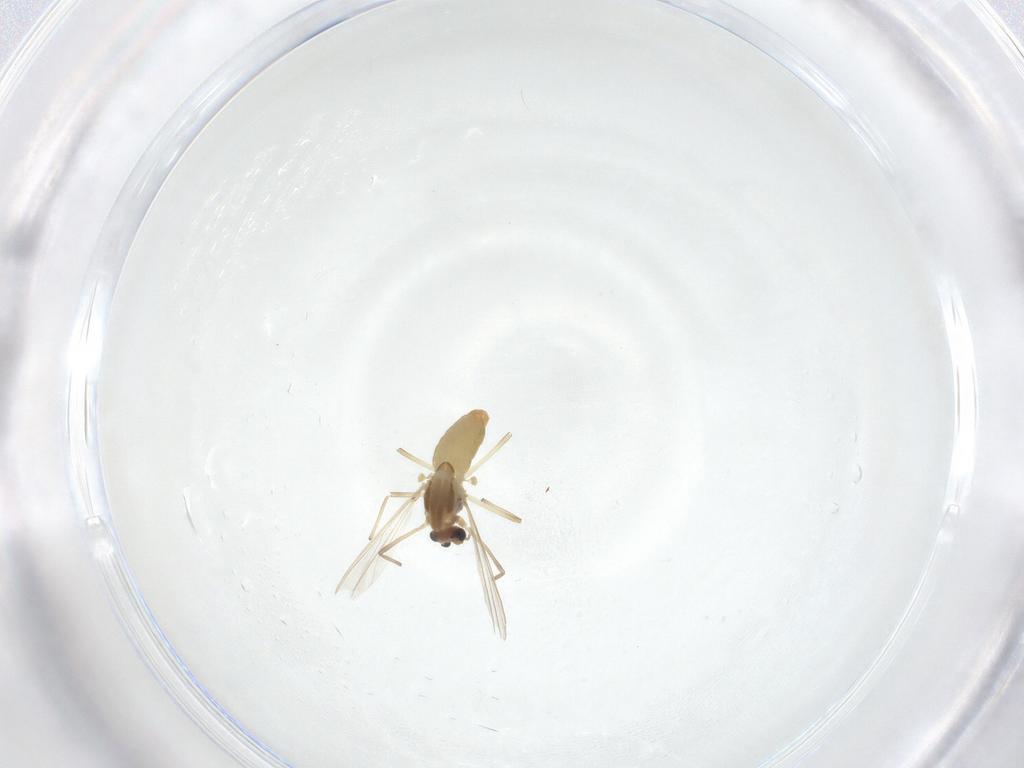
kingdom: Animalia
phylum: Arthropoda
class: Insecta
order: Diptera
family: Chironomidae
